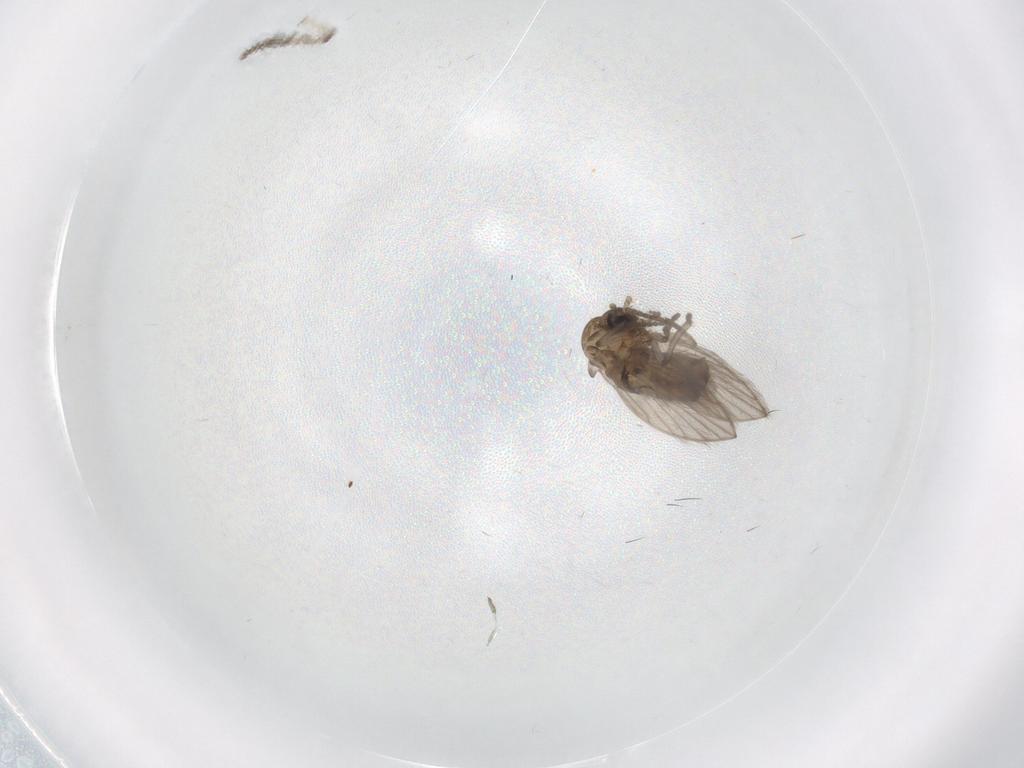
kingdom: Animalia
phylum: Arthropoda
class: Insecta
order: Diptera
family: Psychodidae
